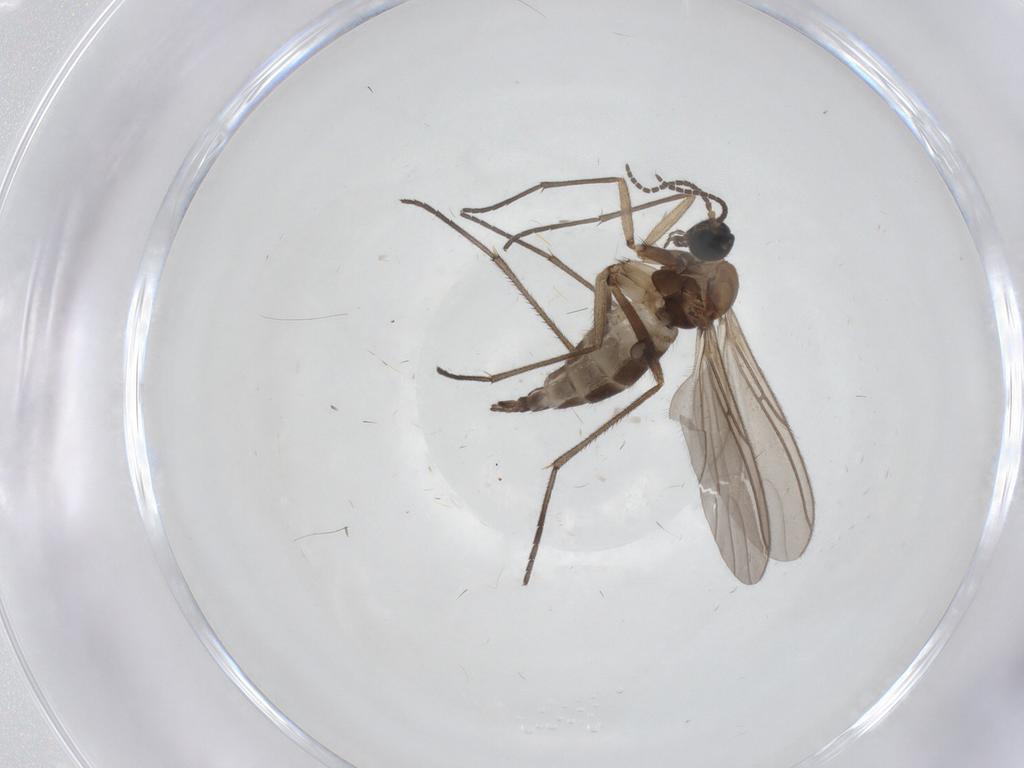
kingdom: Animalia
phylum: Arthropoda
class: Insecta
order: Diptera
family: Sciaridae
